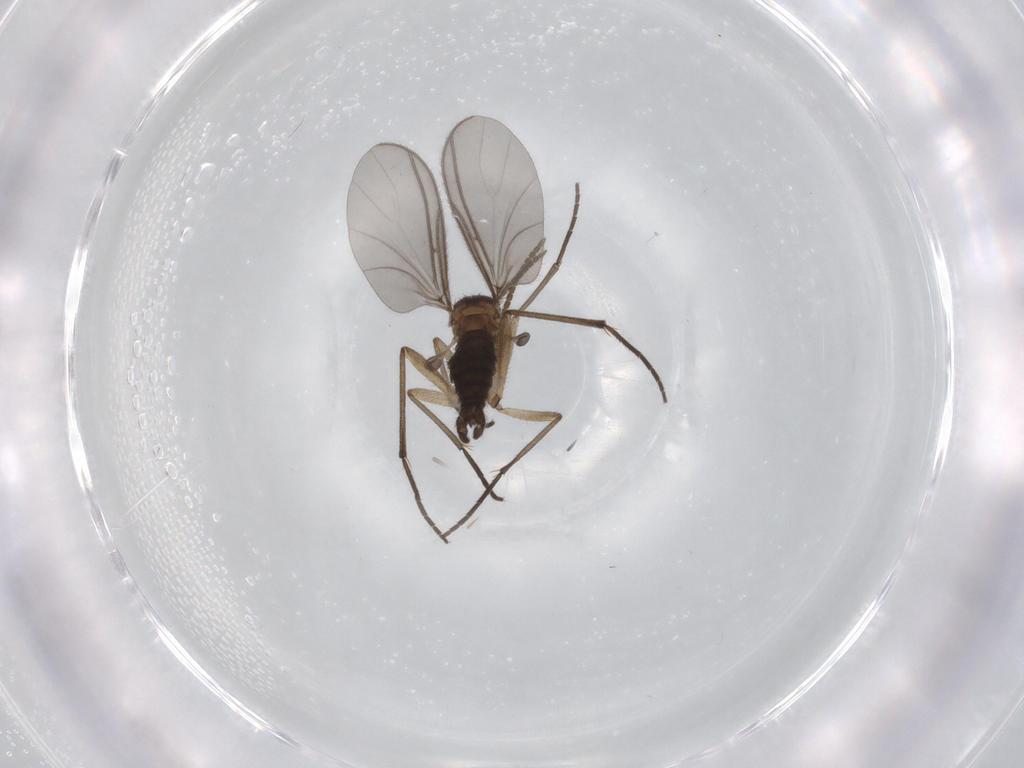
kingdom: Animalia
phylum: Arthropoda
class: Insecta
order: Diptera
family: Sciaridae
